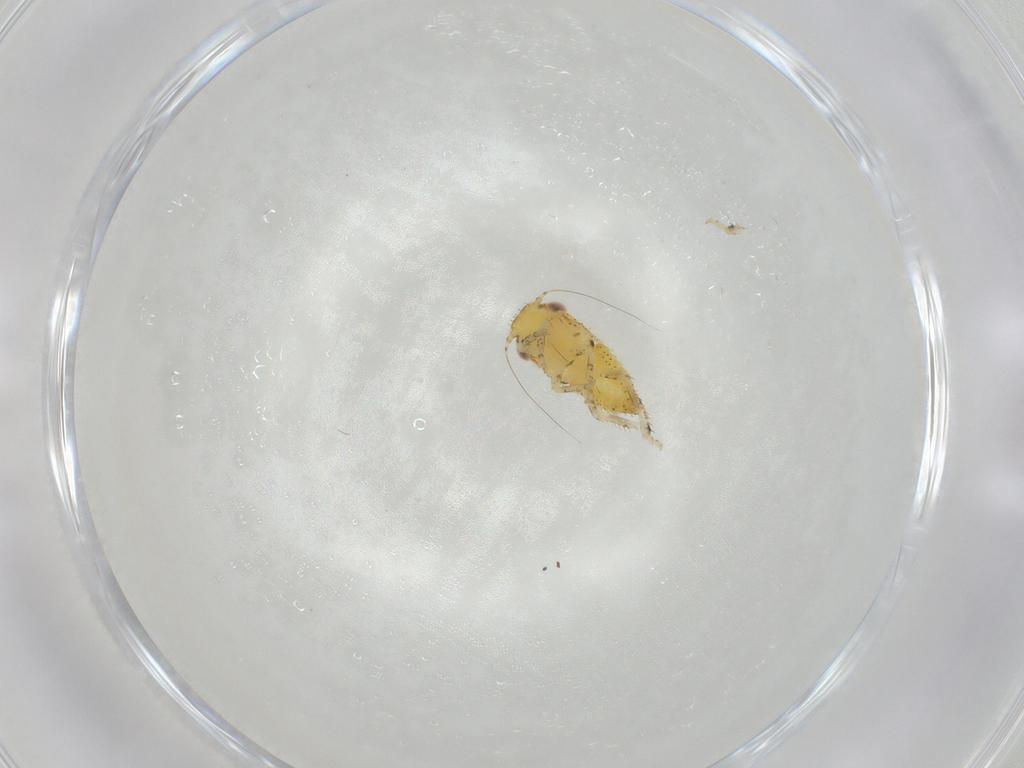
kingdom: Animalia
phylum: Arthropoda
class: Insecta
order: Hemiptera
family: Cicadellidae
